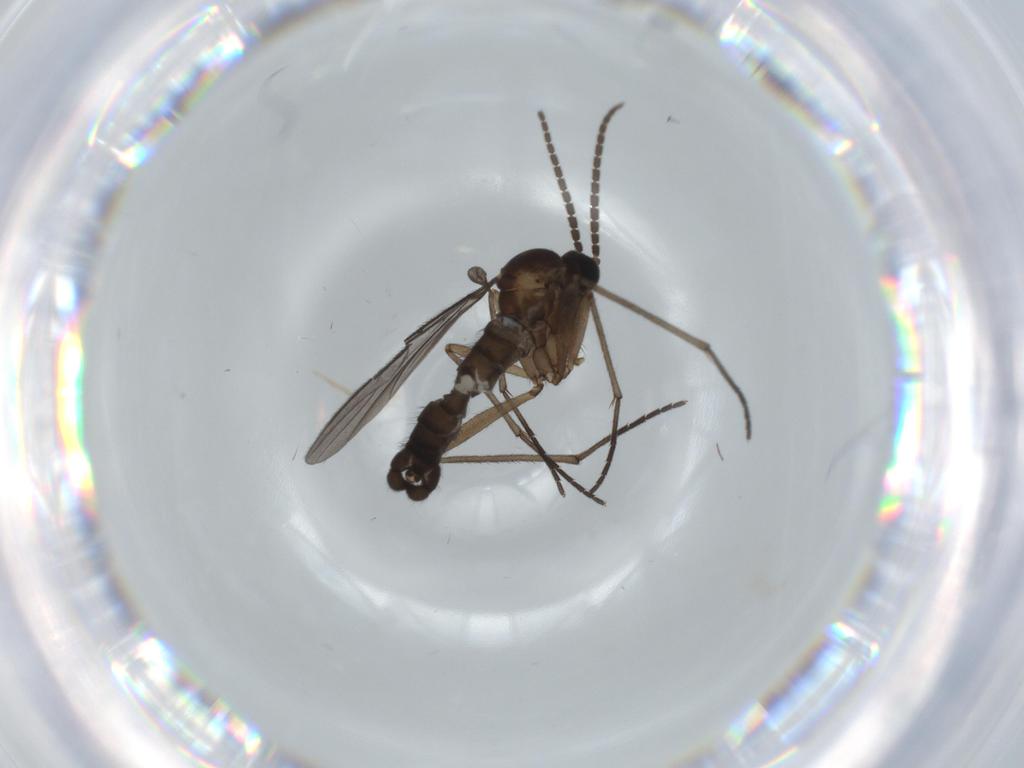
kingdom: Animalia
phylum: Arthropoda
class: Insecta
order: Diptera
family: Sciaridae
